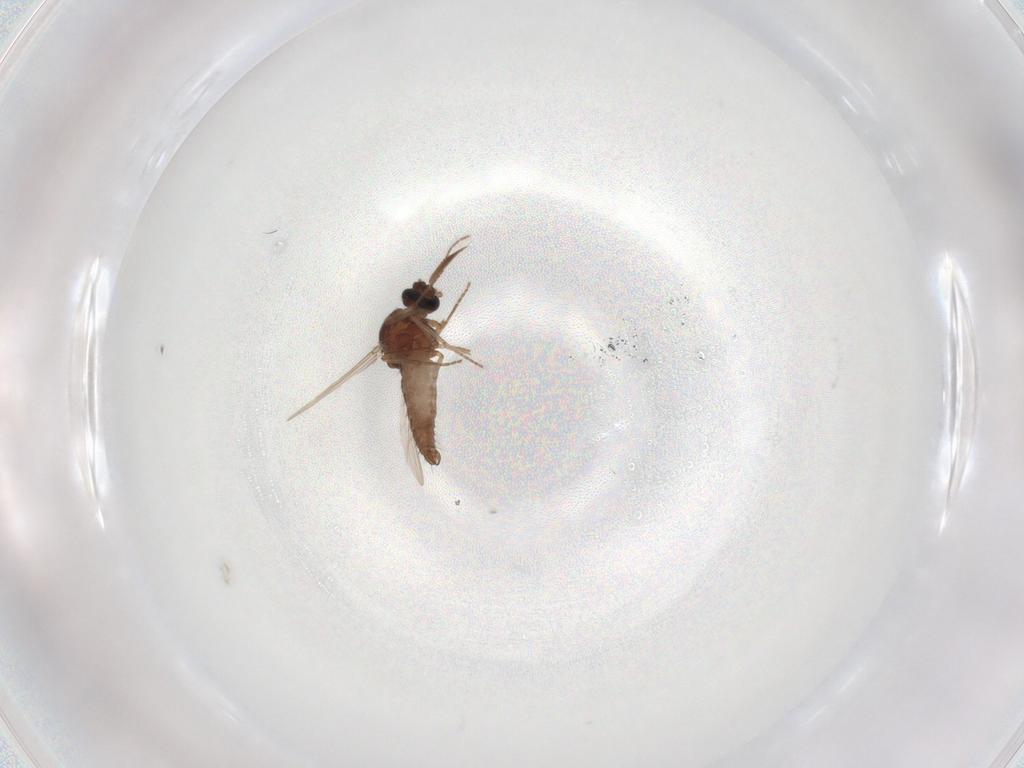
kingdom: Animalia
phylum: Arthropoda
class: Insecta
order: Diptera
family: Ceratopogonidae
